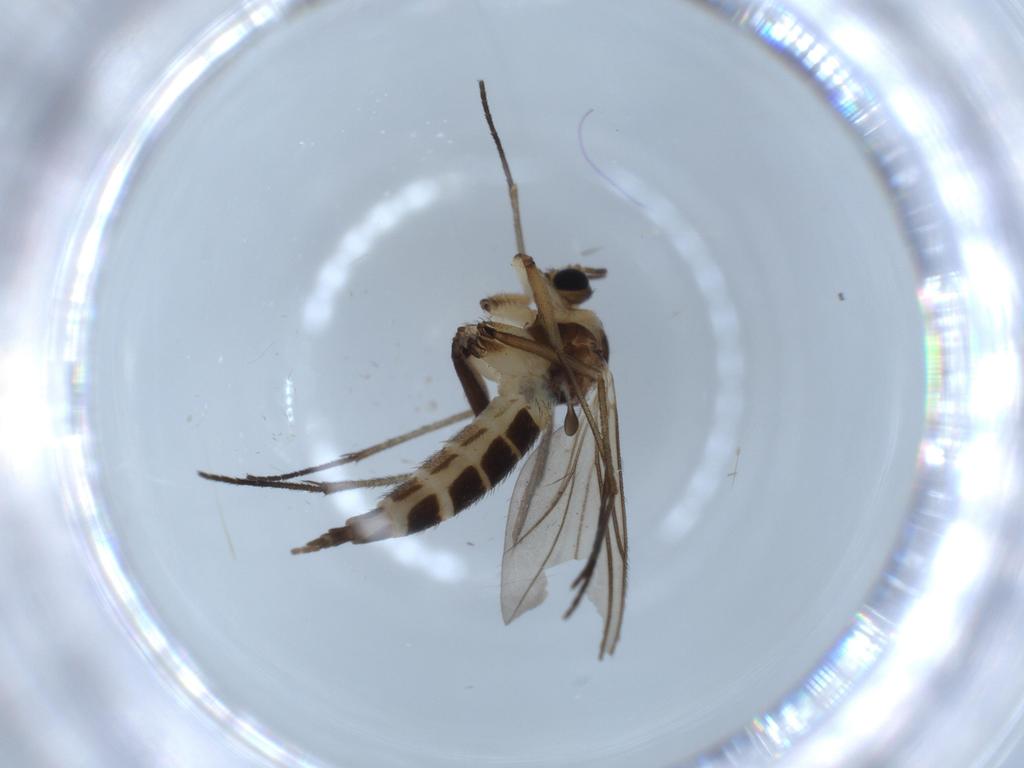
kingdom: Animalia
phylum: Arthropoda
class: Insecta
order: Diptera
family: Sciaridae
